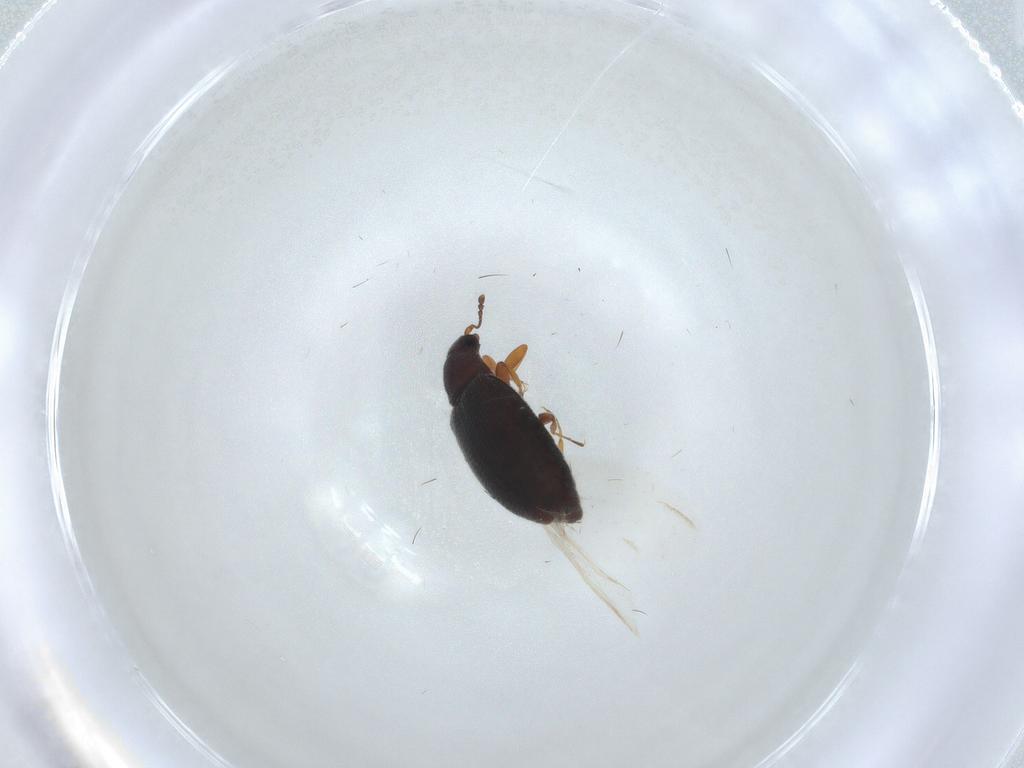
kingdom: Animalia
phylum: Arthropoda
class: Insecta
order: Coleoptera
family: Latridiidae
